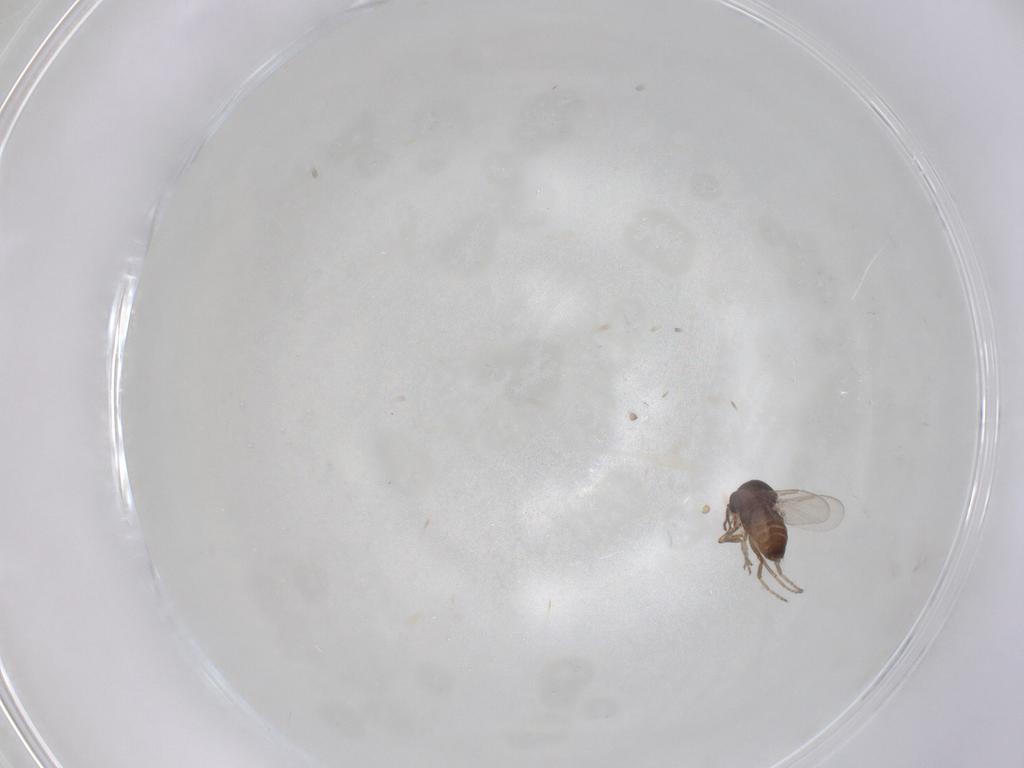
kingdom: Animalia
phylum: Arthropoda
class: Insecta
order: Diptera
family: Ceratopogonidae
